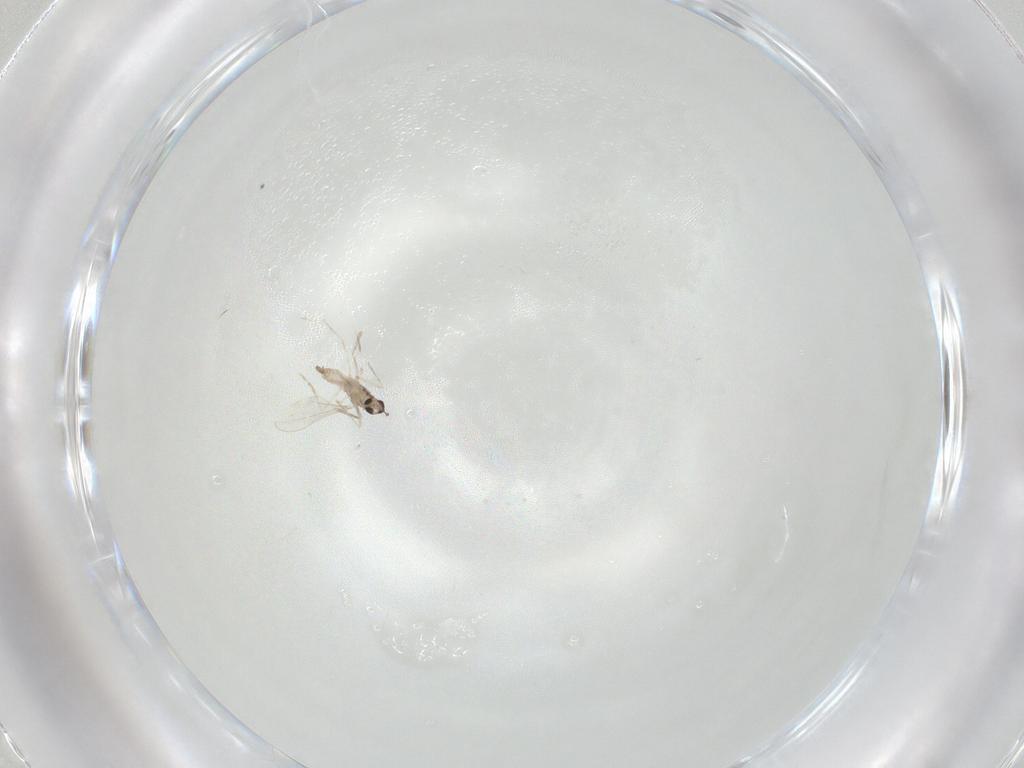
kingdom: Animalia
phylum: Arthropoda
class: Insecta
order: Diptera
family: Cecidomyiidae
